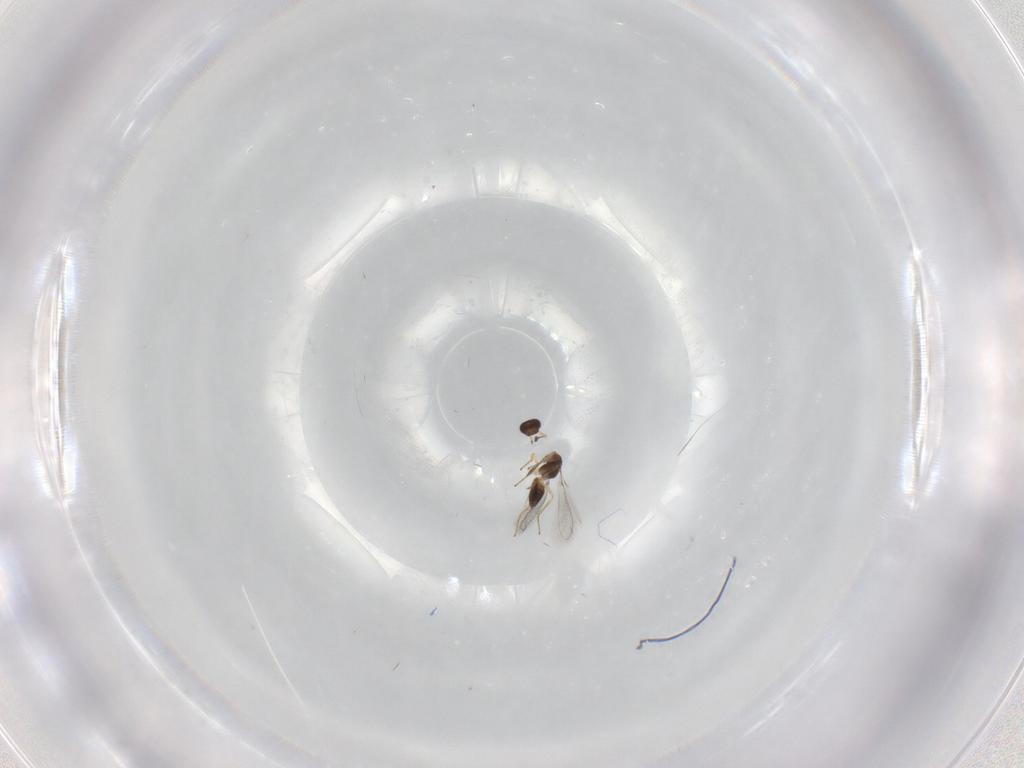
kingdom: Animalia
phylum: Arthropoda
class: Insecta
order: Hymenoptera
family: Mymaridae
